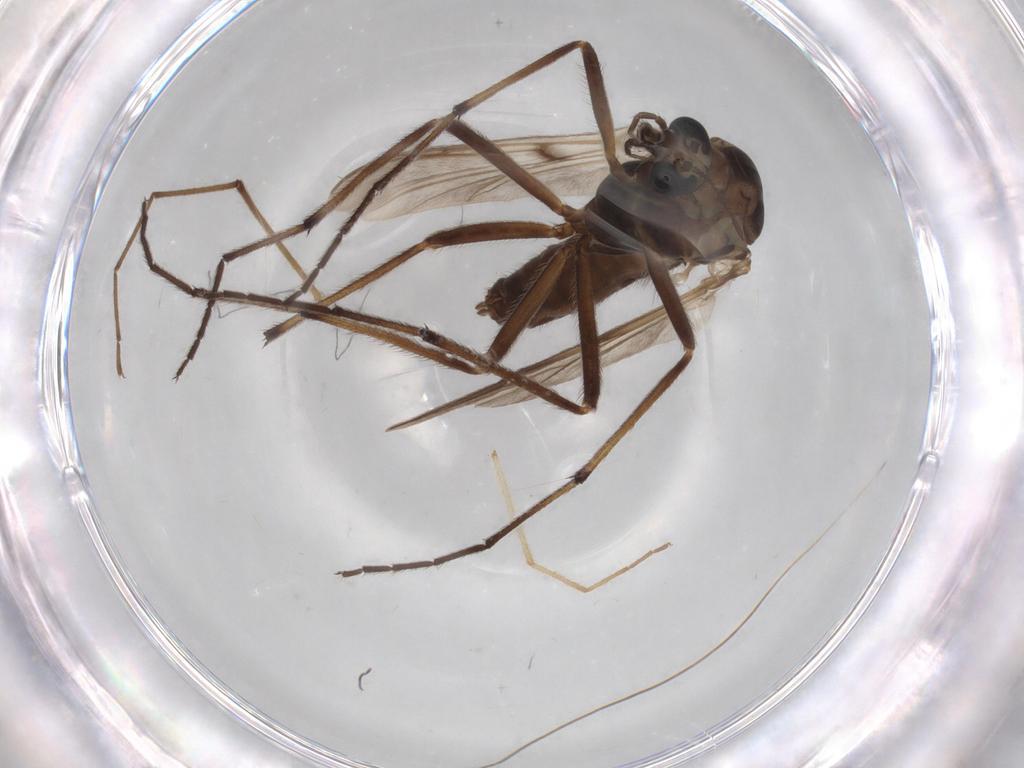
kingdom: Animalia
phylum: Arthropoda
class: Insecta
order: Diptera
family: Chironomidae
